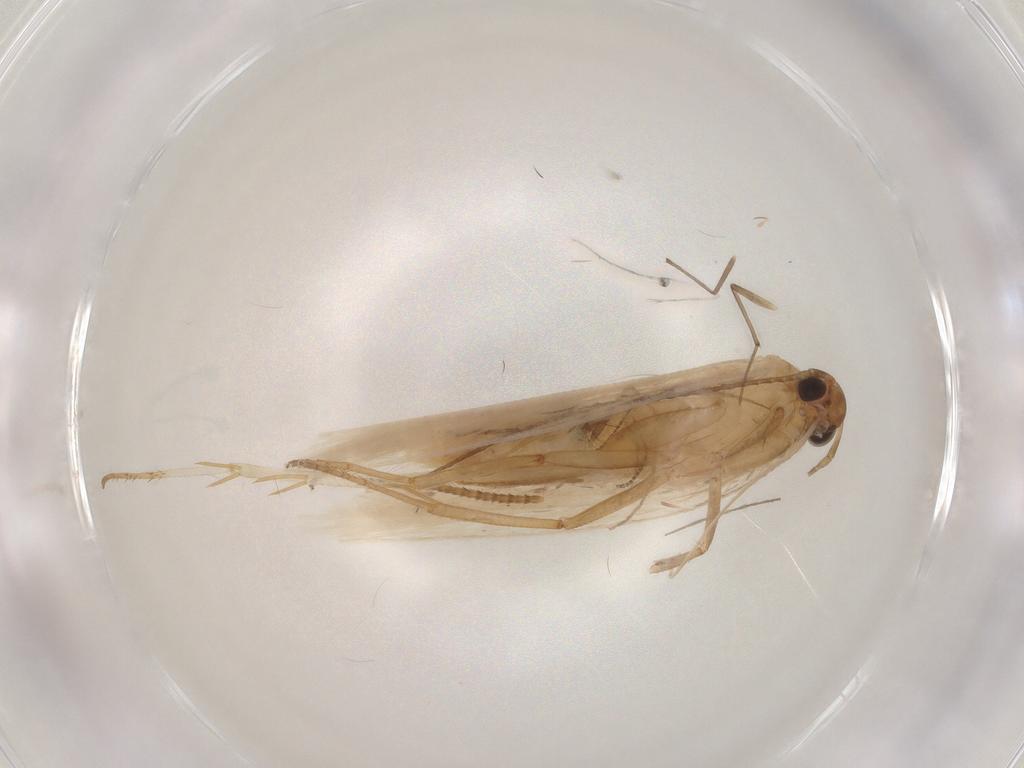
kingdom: Animalia
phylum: Arthropoda
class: Insecta
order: Lepidoptera
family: Gelechiidae
